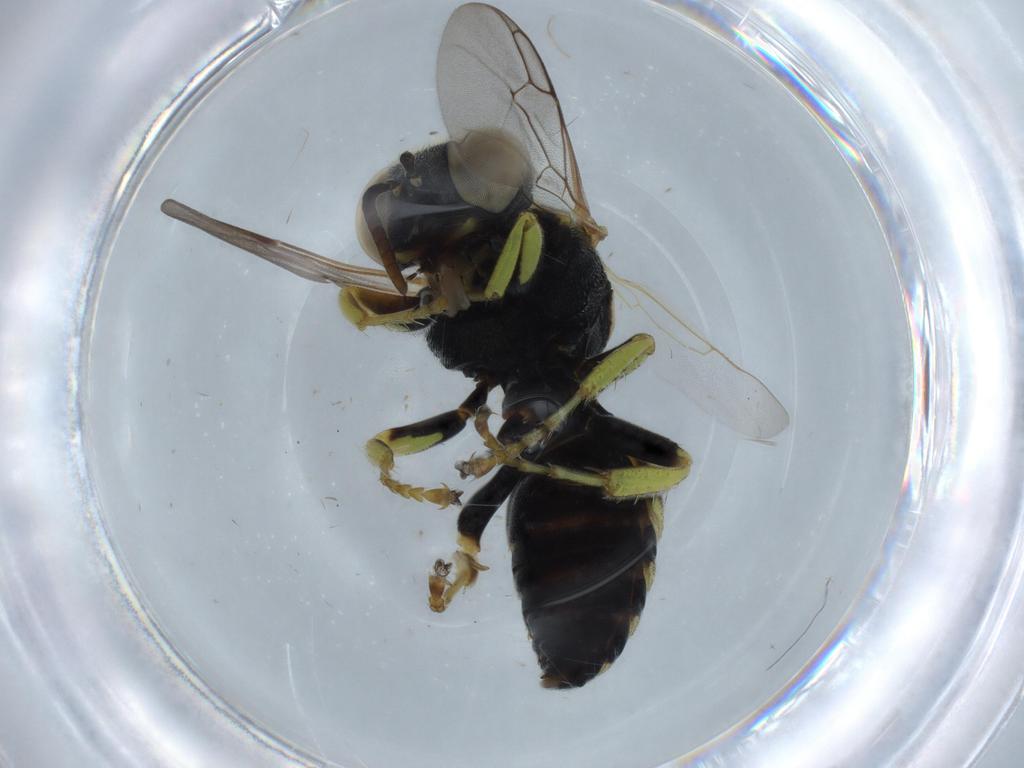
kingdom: Animalia
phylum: Arthropoda
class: Insecta
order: Hymenoptera
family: Crabronidae
